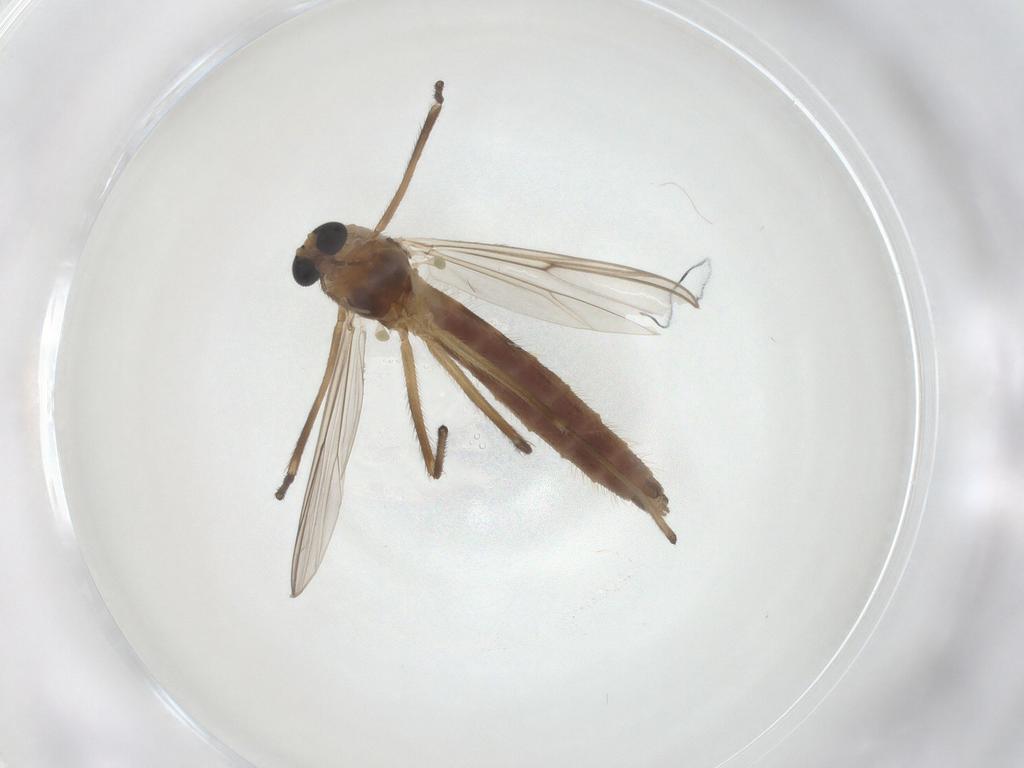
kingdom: Animalia
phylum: Arthropoda
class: Insecta
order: Diptera
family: Chironomidae
